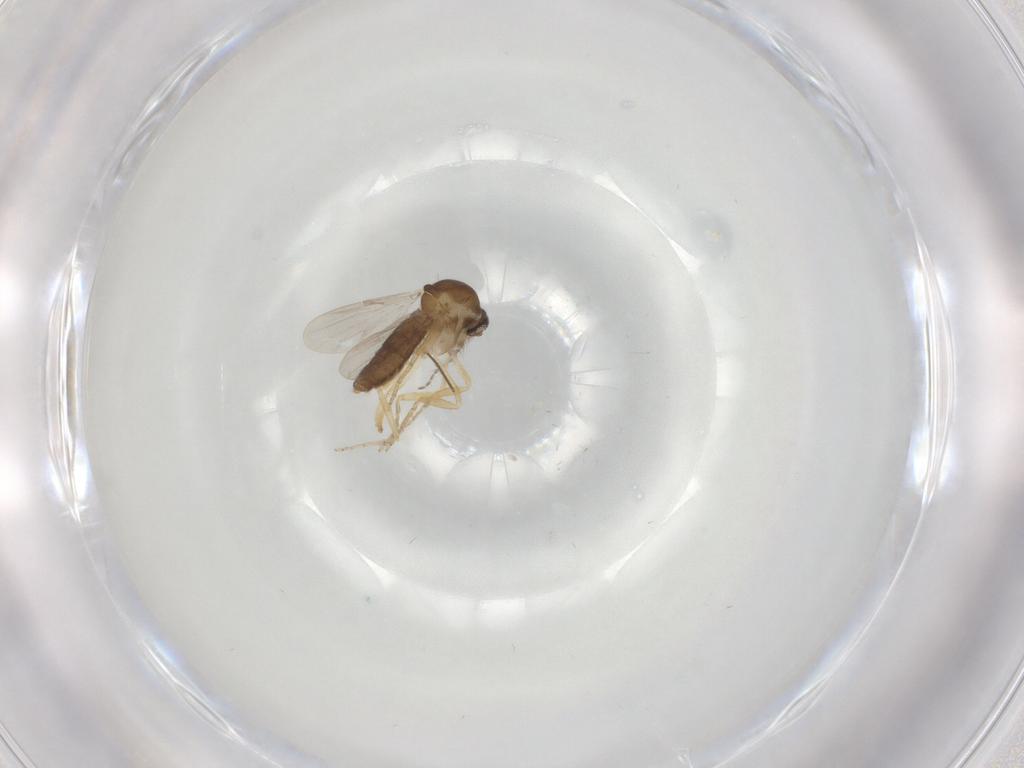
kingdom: Animalia
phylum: Arthropoda
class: Insecta
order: Diptera
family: Ceratopogonidae
